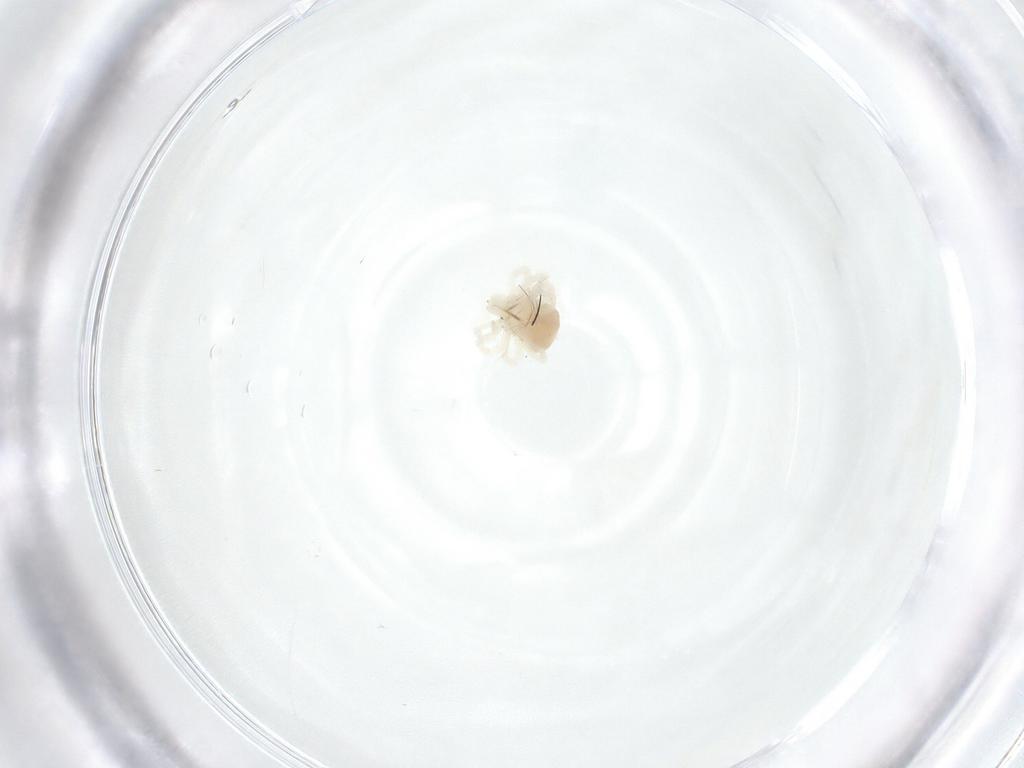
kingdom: Animalia
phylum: Arthropoda
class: Arachnida
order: Trombidiformes
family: Anystidae
